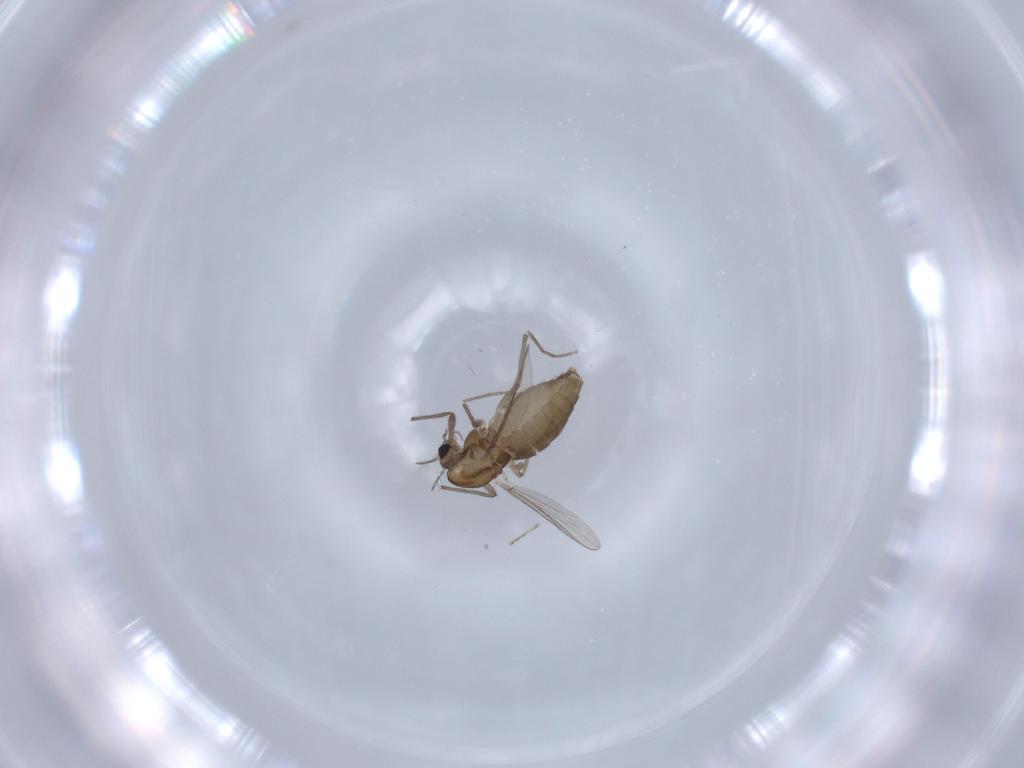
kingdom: Animalia
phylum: Arthropoda
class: Insecta
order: Diptera
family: Chironomidae
